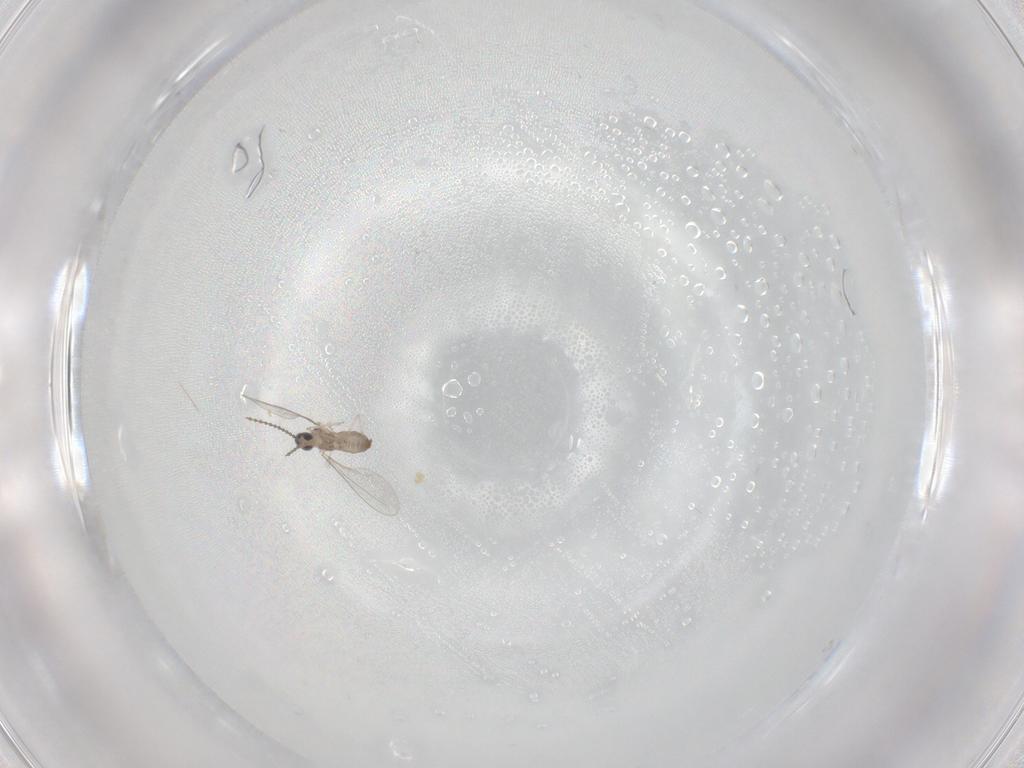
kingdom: Animalia
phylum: Arthropoda
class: Insecta
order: Diptera
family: Cecidomyiidae
